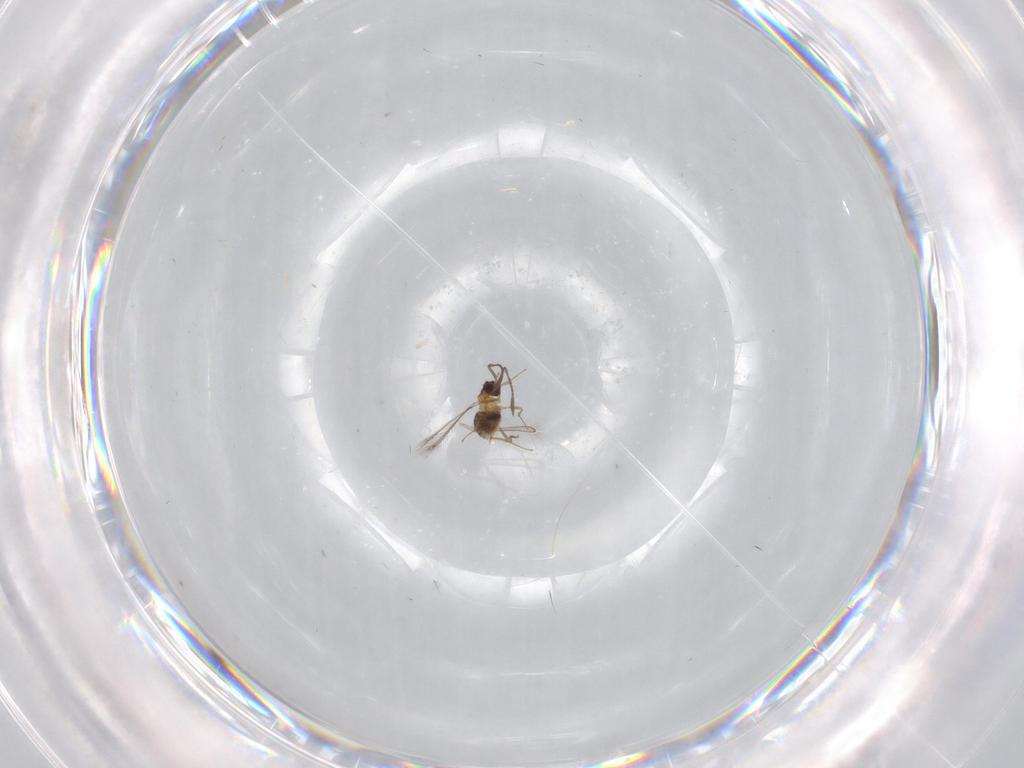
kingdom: Animalia
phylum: Arthropoda
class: Insecta
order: Hymenoptera
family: Mymaridae
